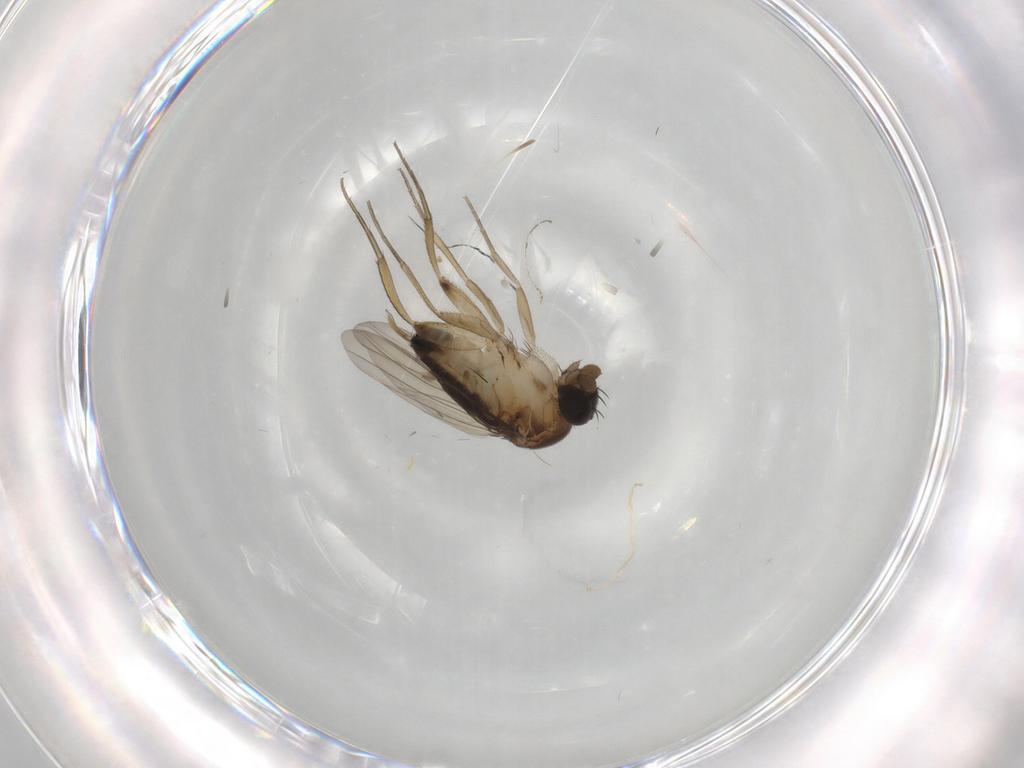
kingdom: Animalia
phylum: Arthropoda
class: Insecta
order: Diptera
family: Phoridae
